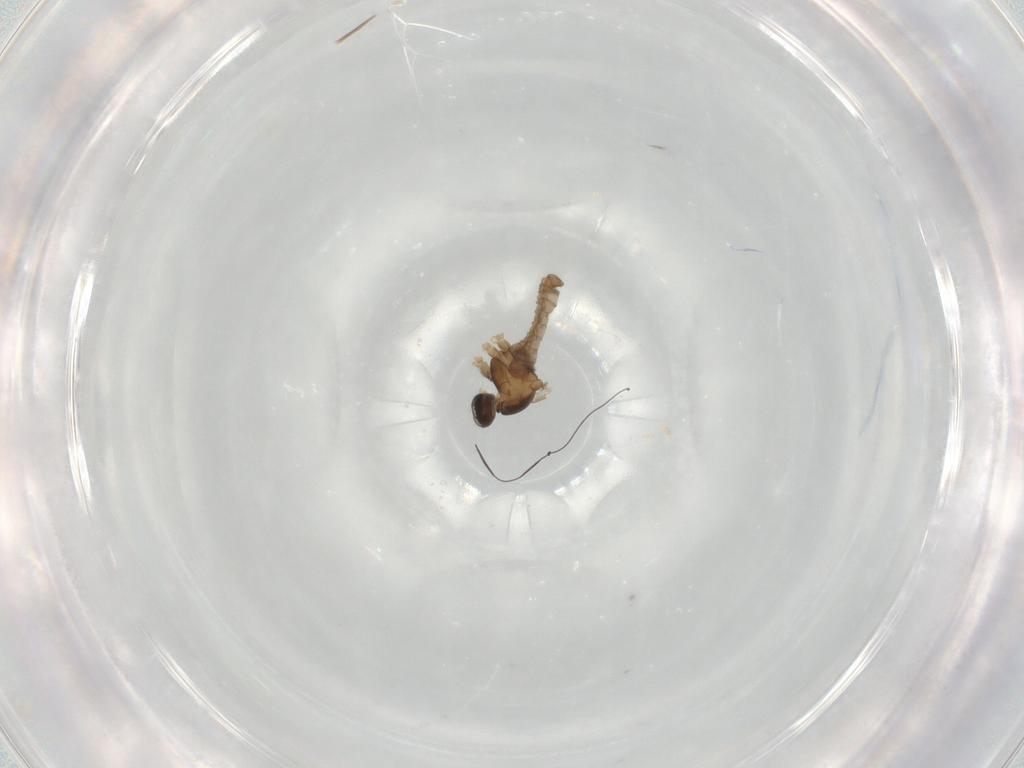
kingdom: Animalia
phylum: Arthropoda
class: Insecta
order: Diptera
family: Cecidomyiidae
